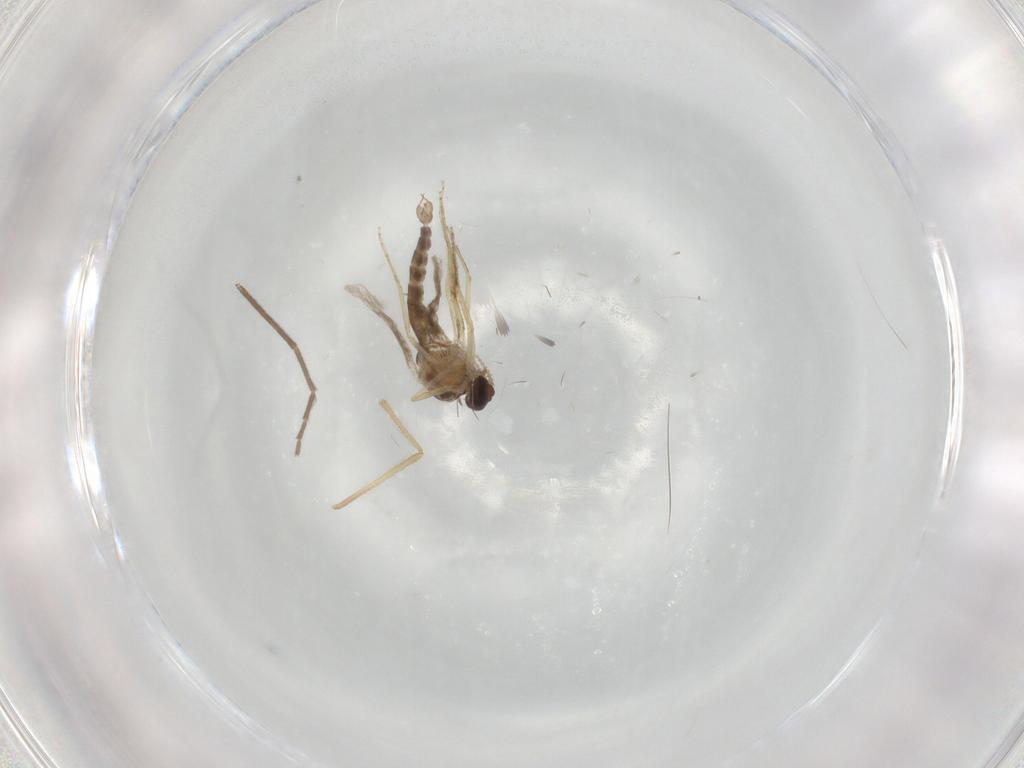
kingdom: Animalia
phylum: Arthropoda
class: Insecta
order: Diptera
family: Ceratopogonidae
